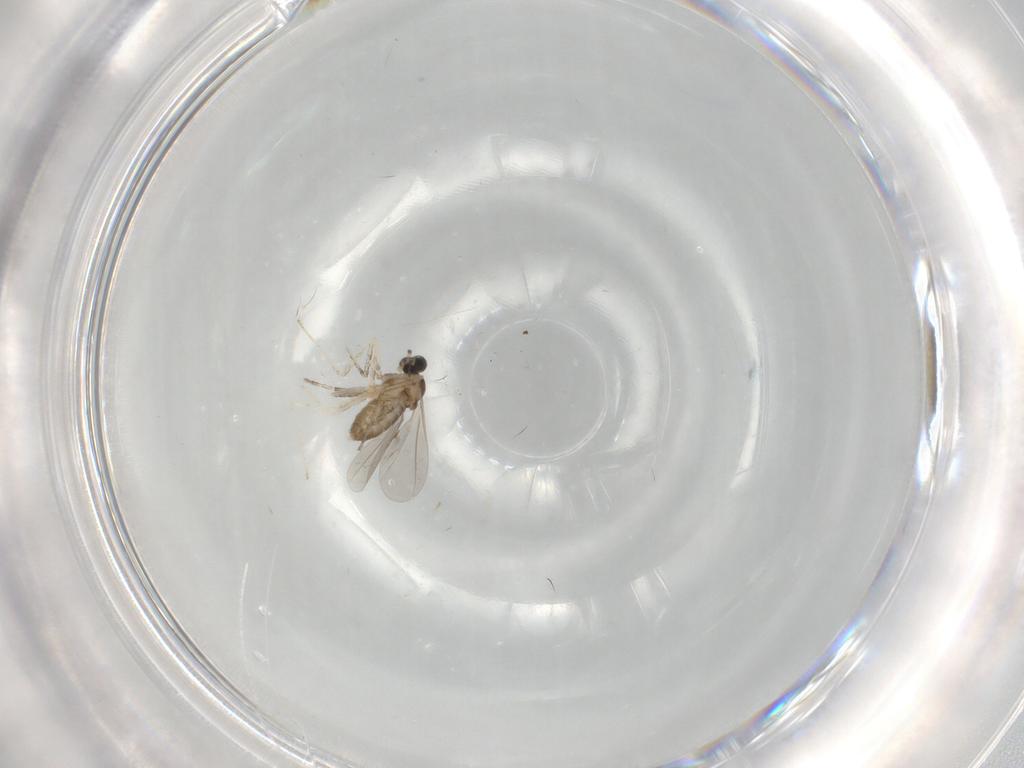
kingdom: Animalia
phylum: Arthropoda
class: Insecta
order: Diptera
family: Cecidomyiidae
